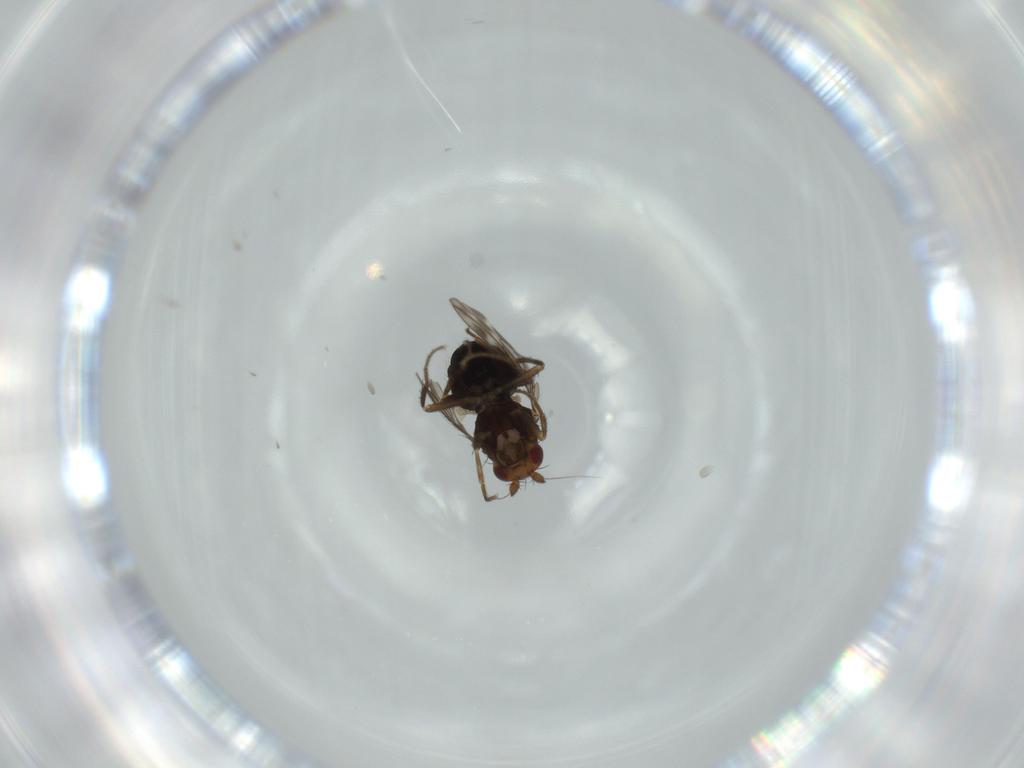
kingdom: Animalia
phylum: Arthropoda
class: Insecta
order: Diptera
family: Sphaeroceridae
